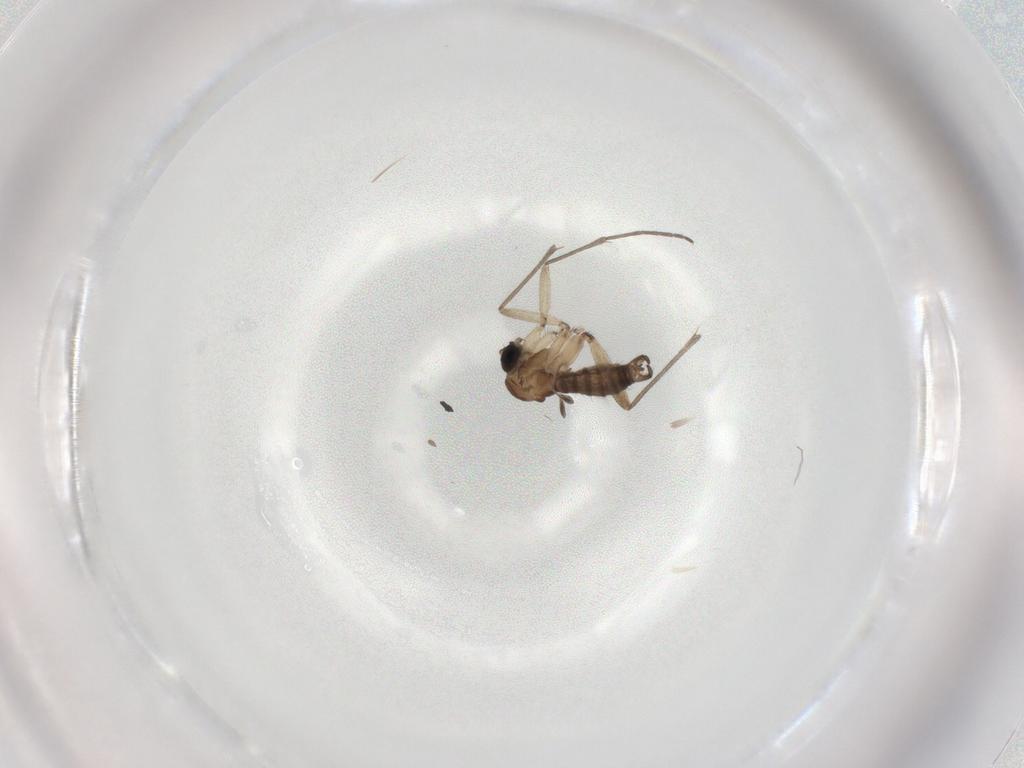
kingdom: Animalia
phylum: Arthropoda
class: Insecta
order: Diptera
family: Sciaridae
